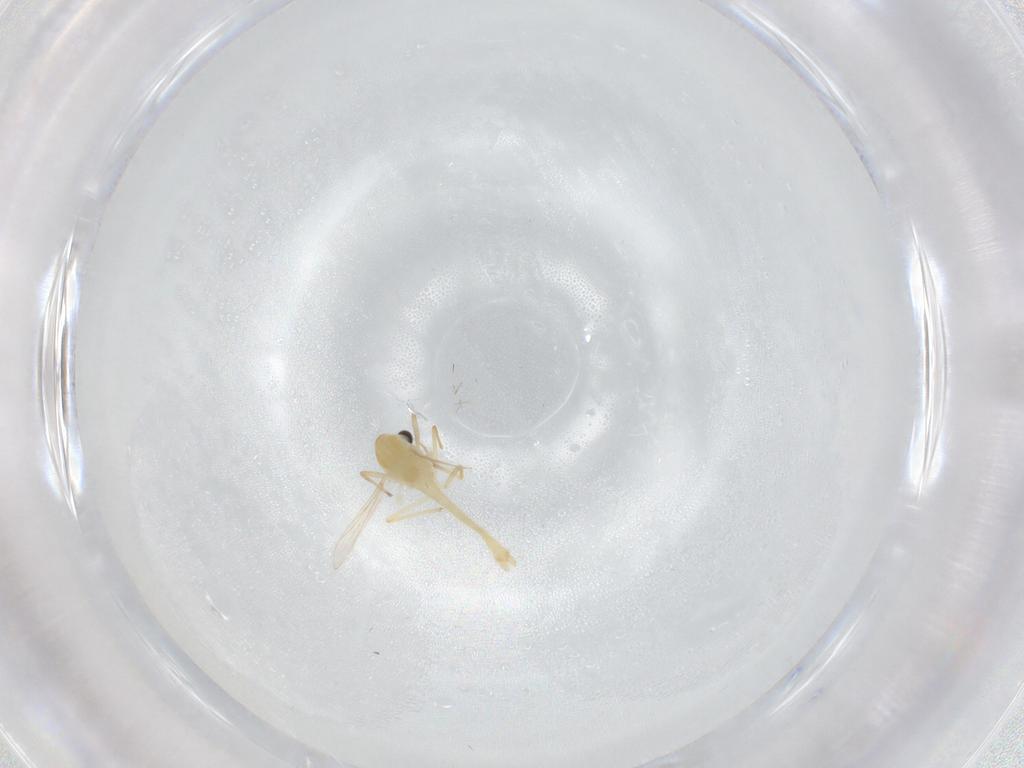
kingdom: Animalia
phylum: Arthropoda
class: Insecta
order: Diptera
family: Chironomidae
